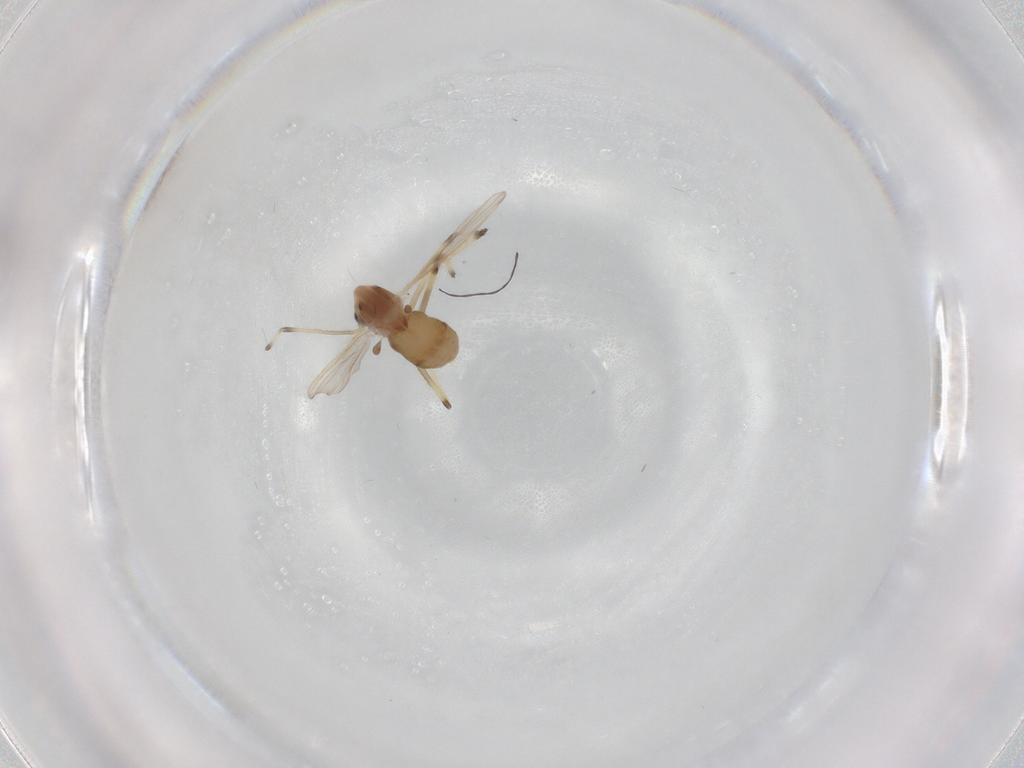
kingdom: Animalia
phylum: Arthropoda
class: Insecta
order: Diptera
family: Chironomidae
